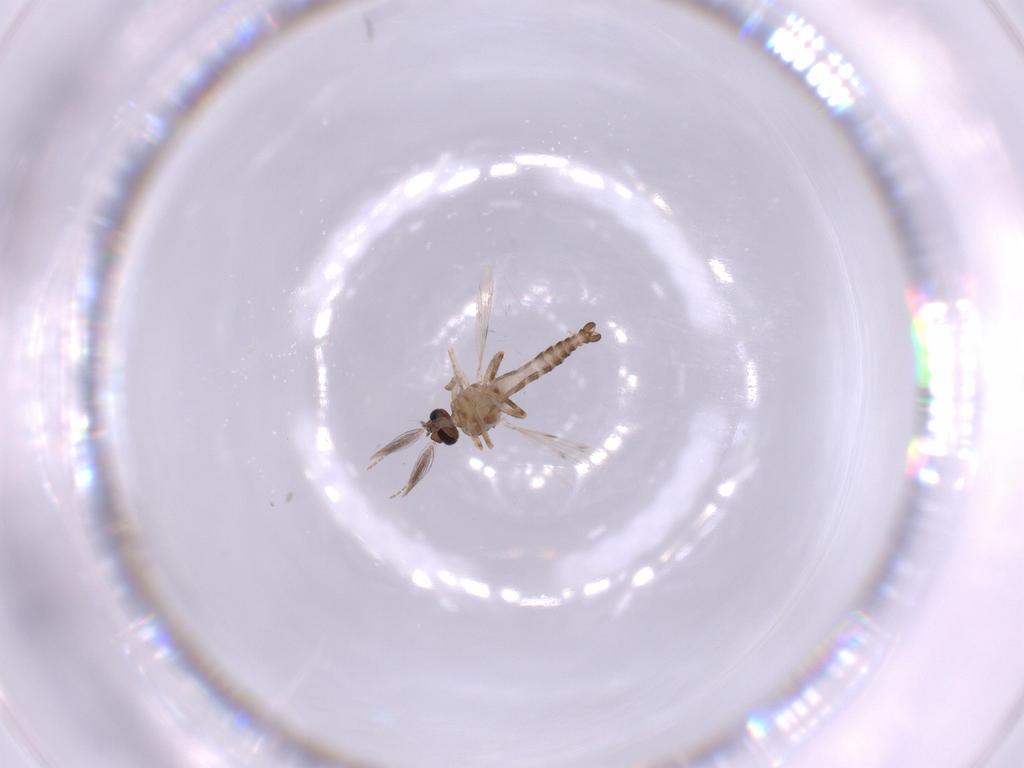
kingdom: Animalia
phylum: Arthropoda
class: Insecta
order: Diptera
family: Ceratopogonidae
